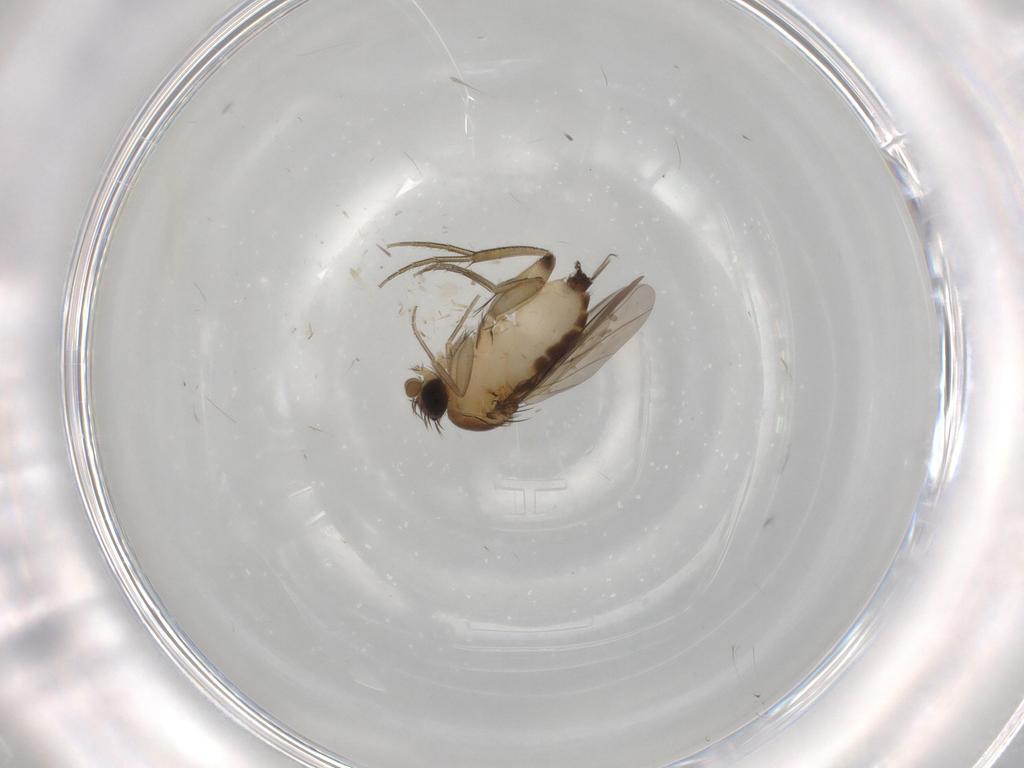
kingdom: Animalia
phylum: Arthropoda
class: Insecta
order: Diptera
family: Phoridae
